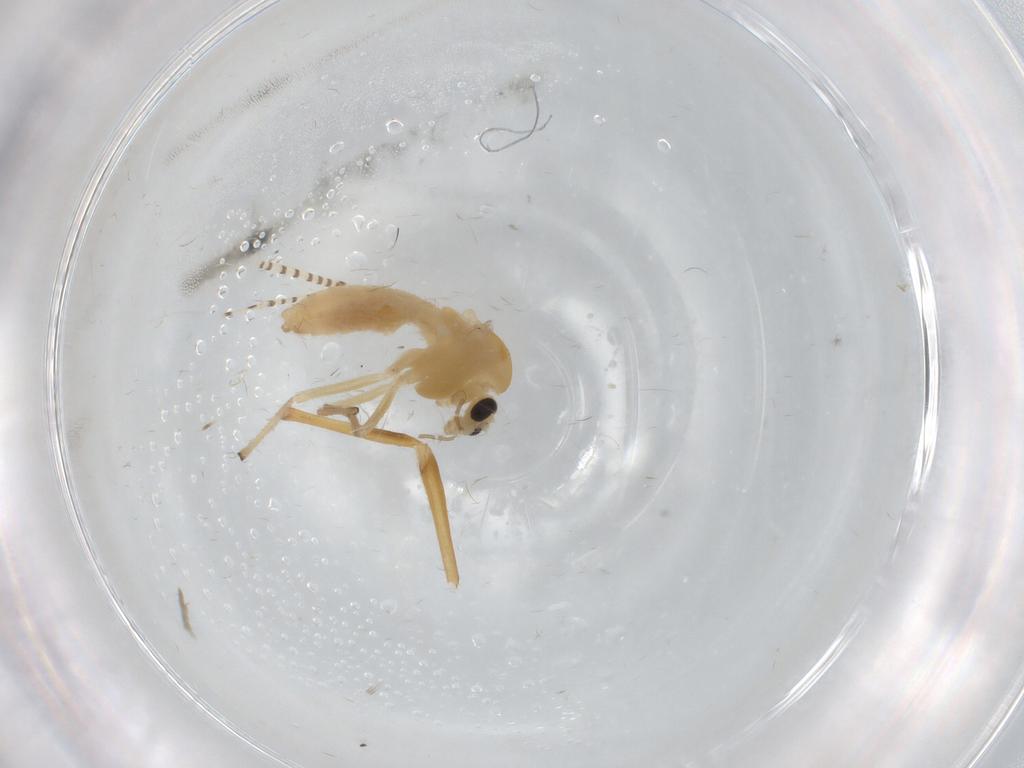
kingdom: Animalia
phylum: Arthropoda
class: Insecta
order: Diptera
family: Chironomidae
